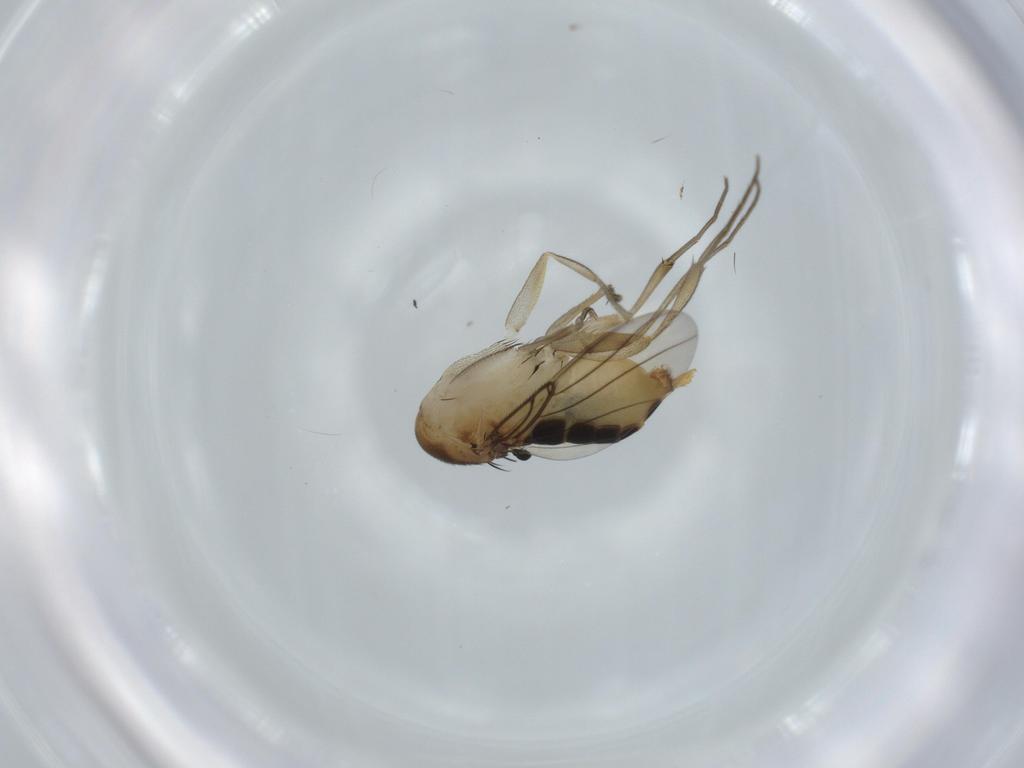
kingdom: Animalia
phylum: Arthropoda
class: Insecta
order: Diptera
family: Phoridae
